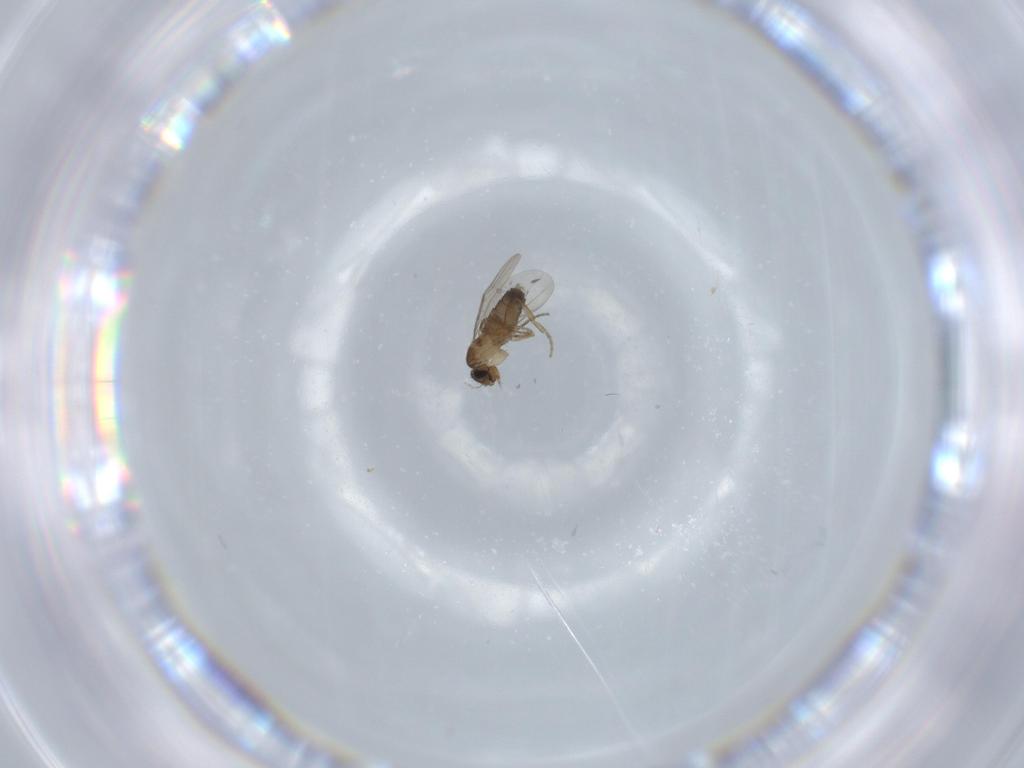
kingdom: Animalia
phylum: Arthropoda
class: Insecta
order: Diptera
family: Phoridae
